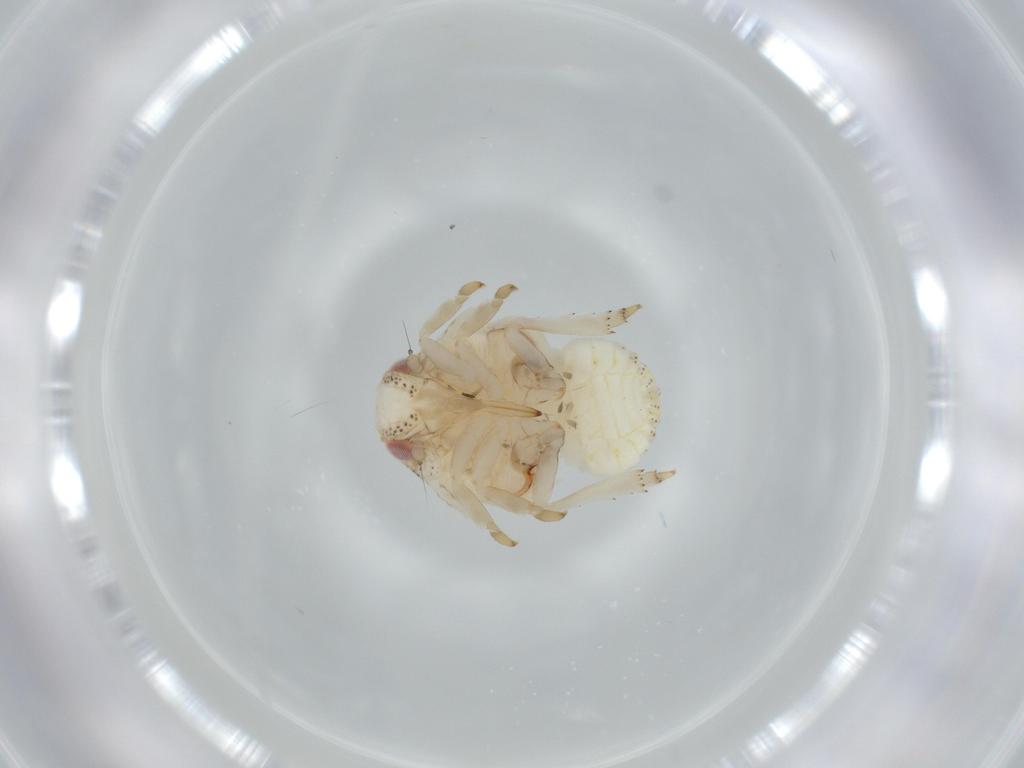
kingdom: Animalia
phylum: Arthropoda
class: Insecta
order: Hemiptera
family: Acanaloniidae
